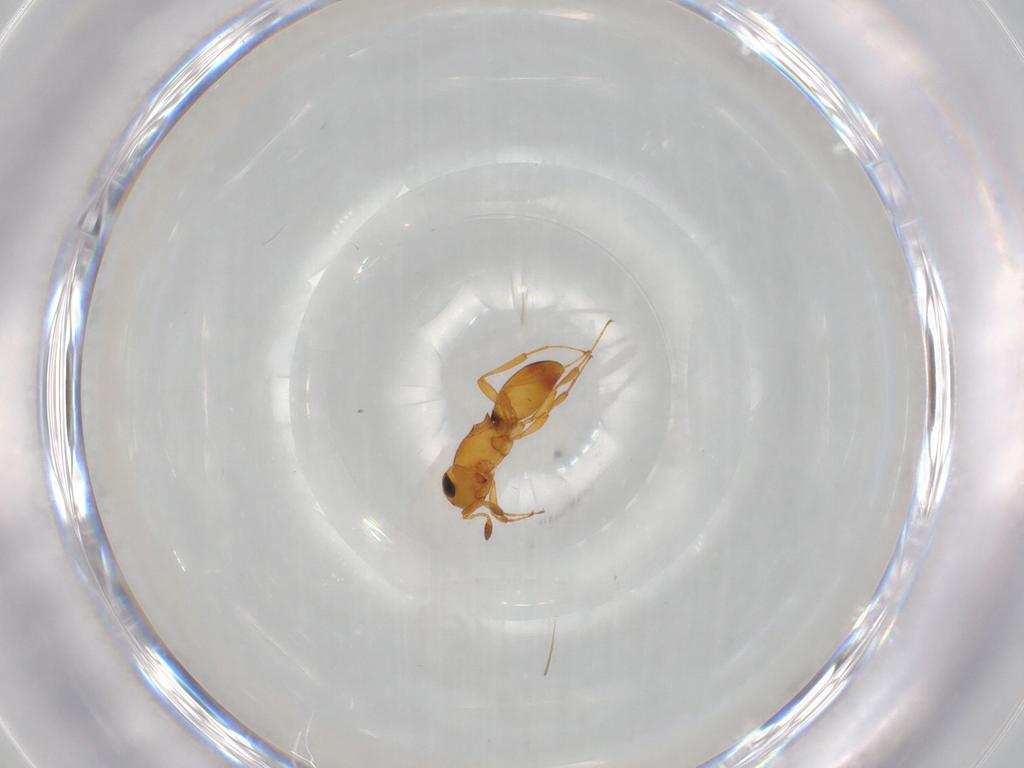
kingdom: Animalia
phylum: Arthropoda
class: Insecta
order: Hymenoptera
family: Platygastridae
